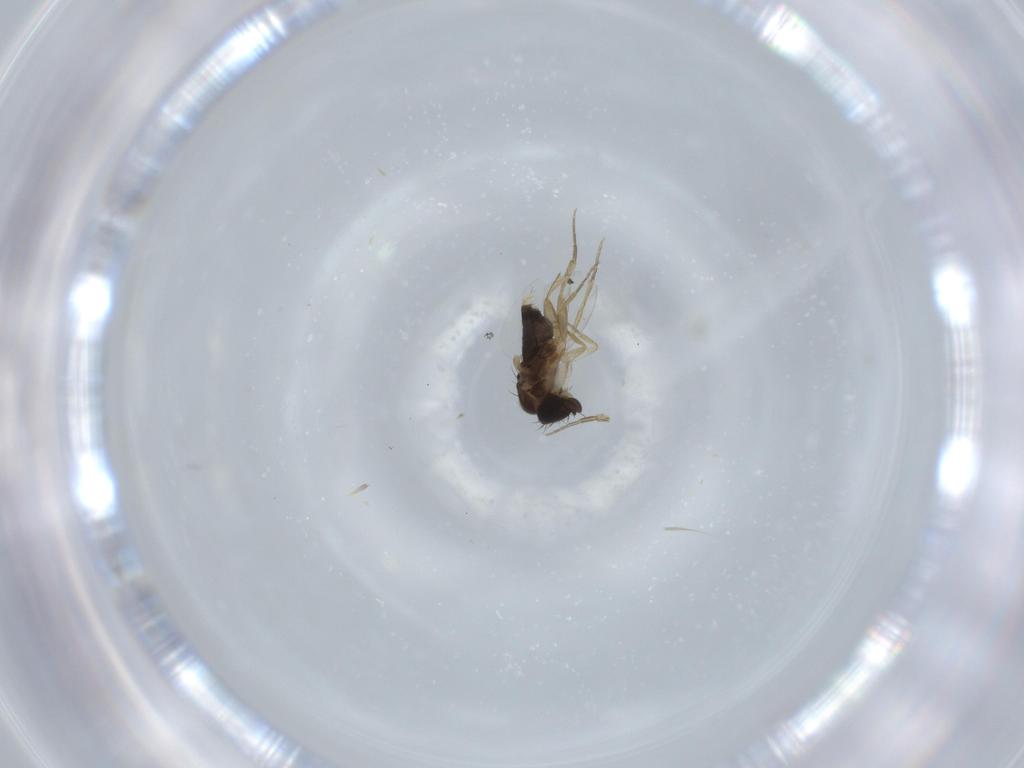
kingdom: Animalia
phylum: Arthropoda
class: Insecta
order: Diptera
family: Phoridae
